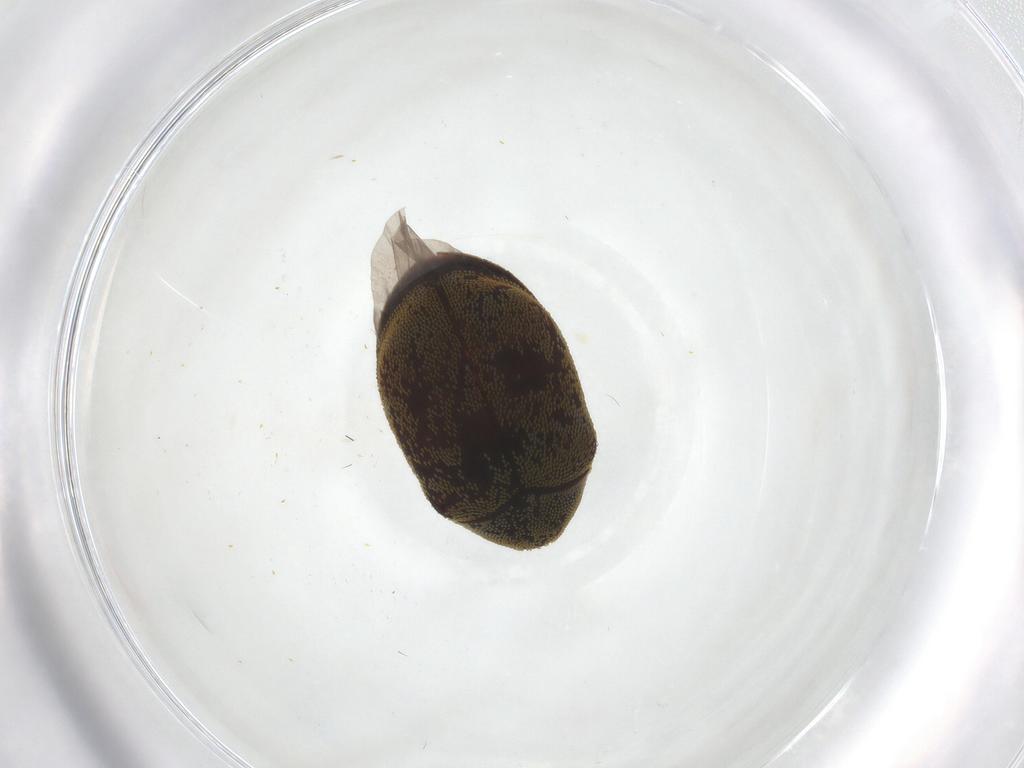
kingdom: Animalia
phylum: Arthropoda
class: Insecta
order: Coleoptera
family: Dermestidae
